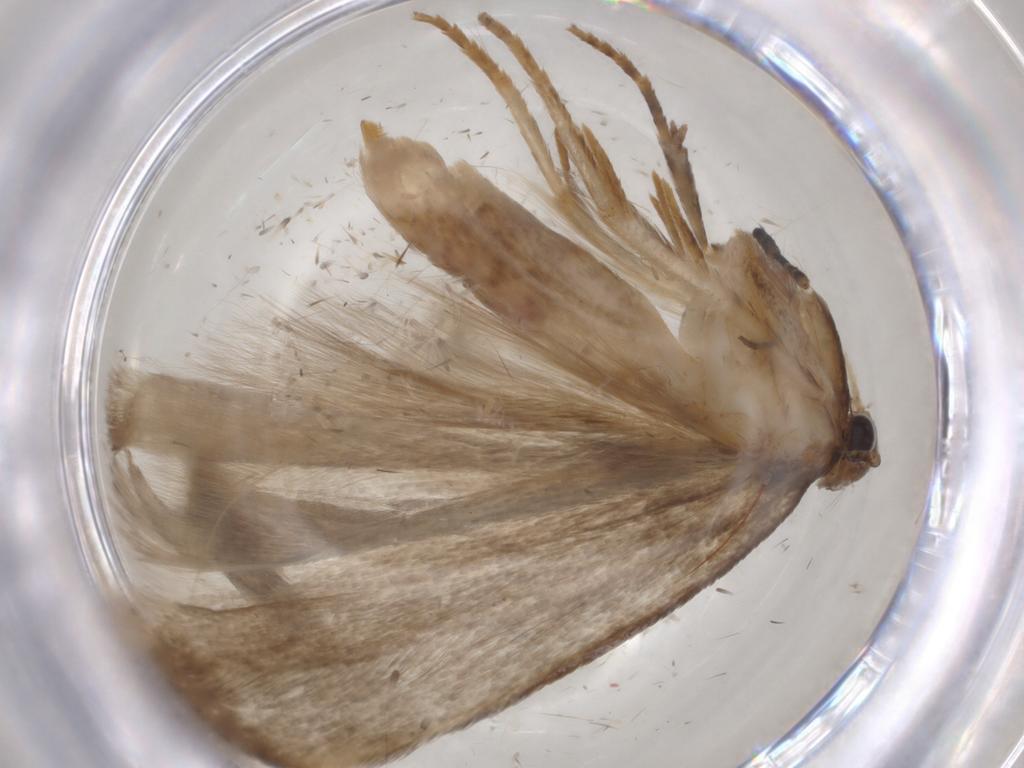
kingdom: Animalia
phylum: Arthropoda
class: Insecta
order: Lepidoptera
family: Gelechiidae
